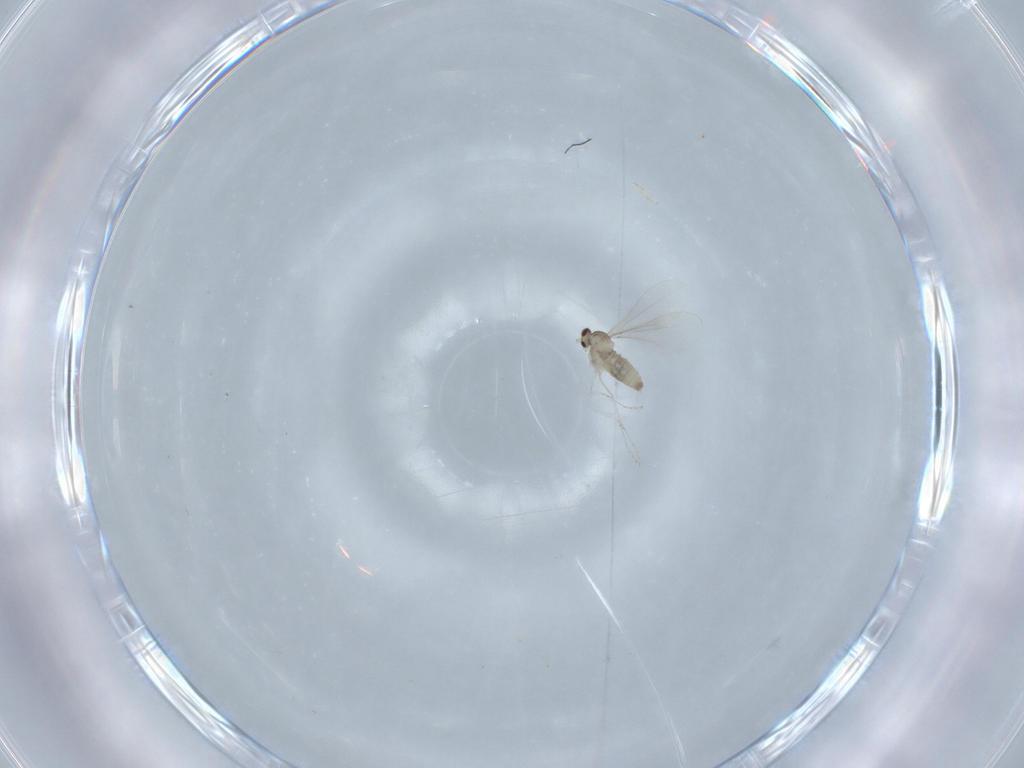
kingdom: Animalia
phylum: Arthropoda
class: Insecta
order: Diptera
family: Cecidomyiidae
